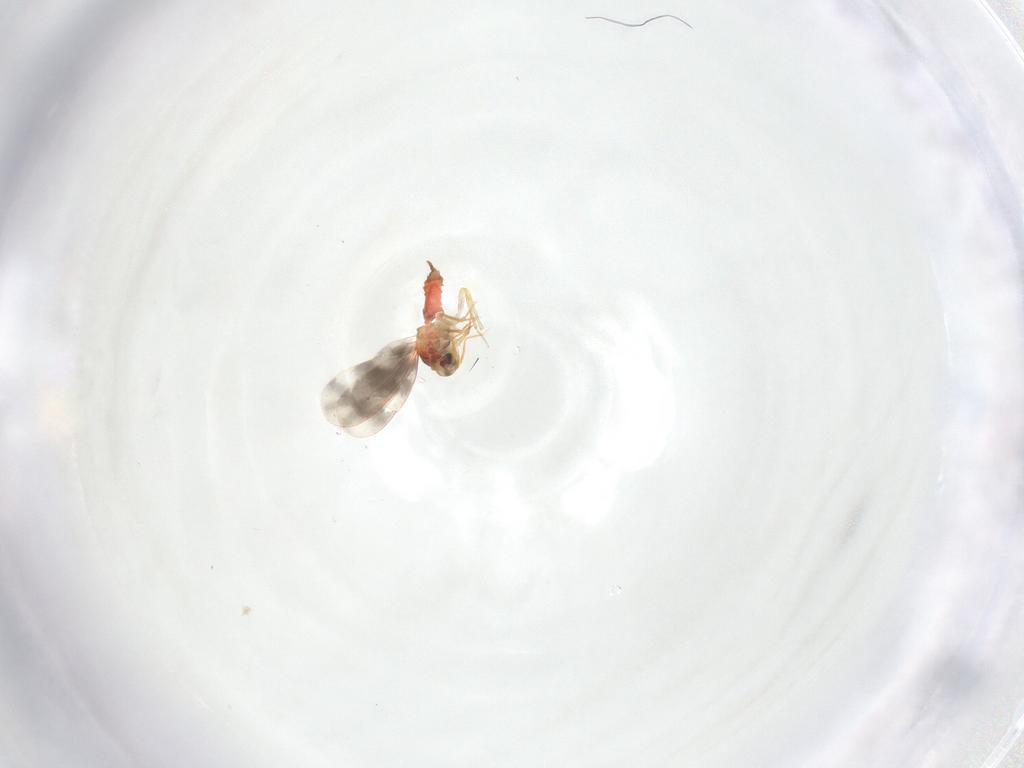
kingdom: Animalia
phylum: Arthropoda
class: Insecta
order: Hemiptera
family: Aleyrodidae
